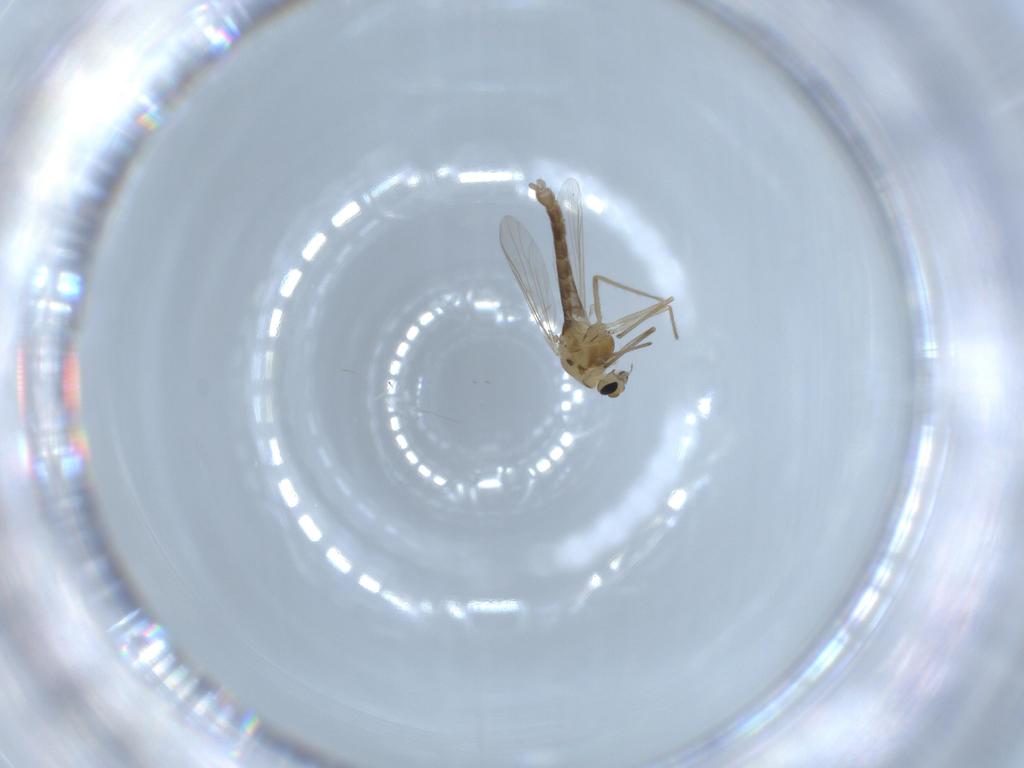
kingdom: Animalia
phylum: Arthropoda
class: Insecta
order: Diptera
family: Chironomidae
